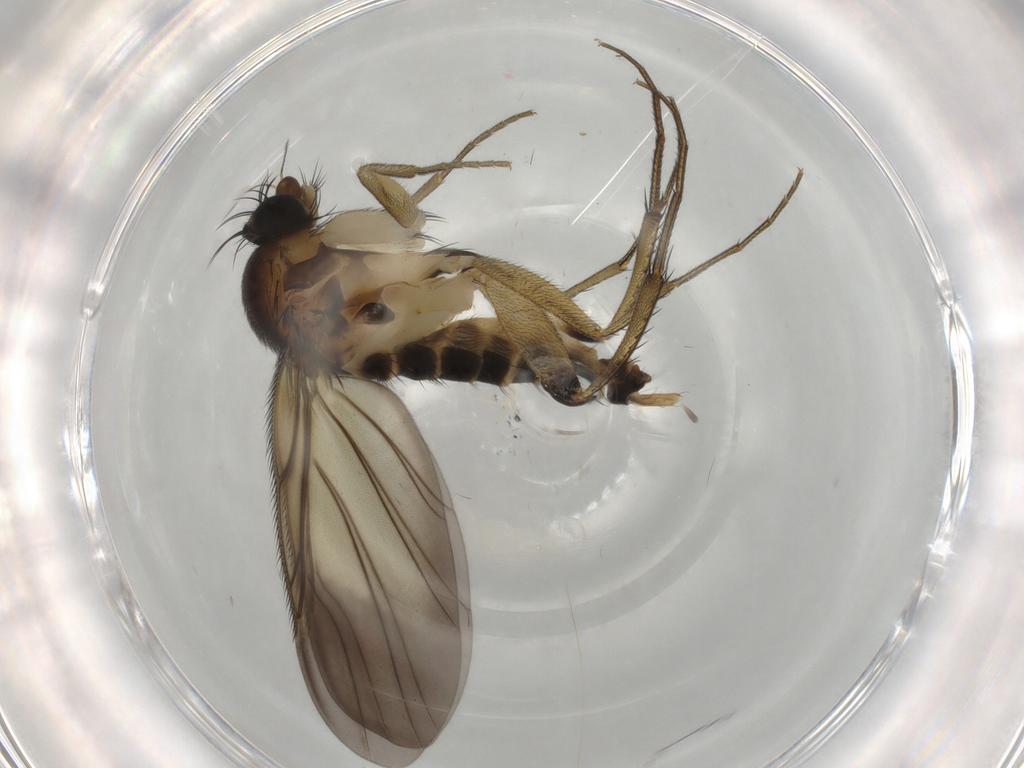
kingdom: Animalia
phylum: Arthropoda
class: Insecta
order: Diptera
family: Phoridae
